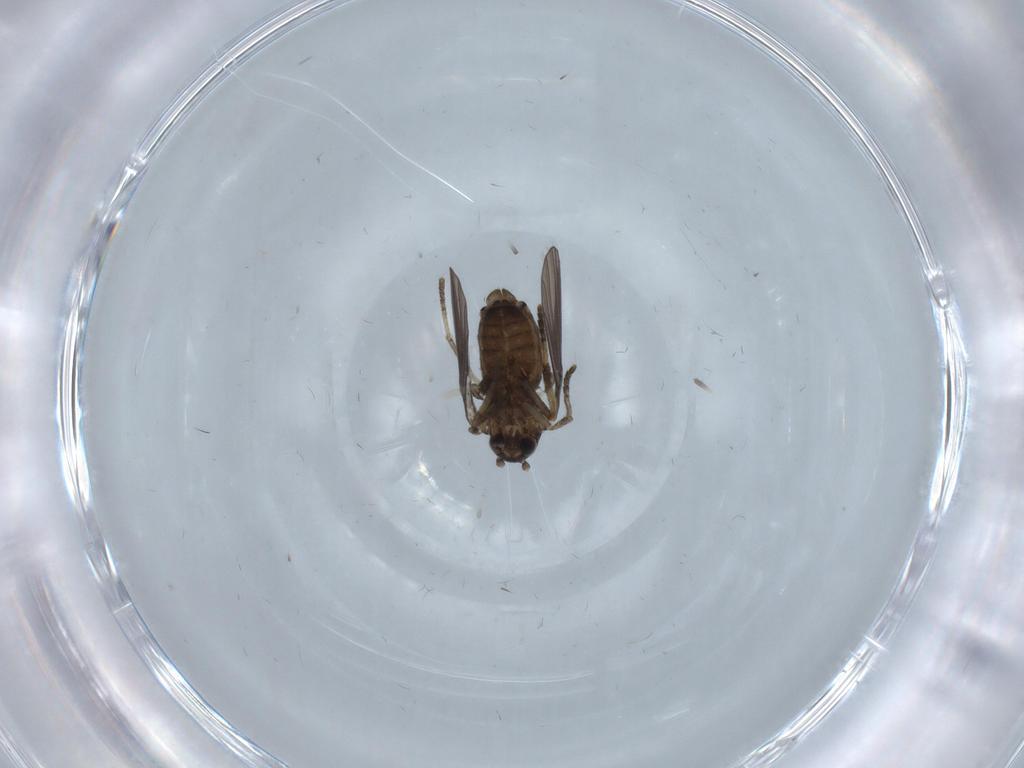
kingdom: Animalia
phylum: Arthropoda
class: Insecta
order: Diptera
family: Psychodidae
